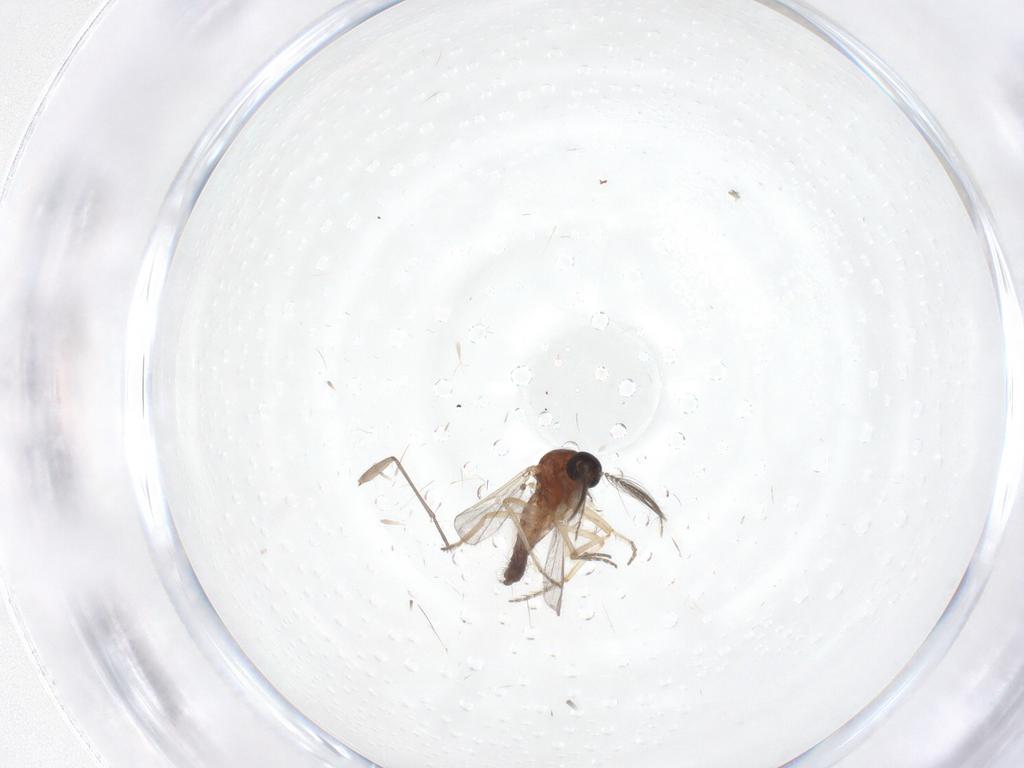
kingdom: Animalia
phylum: Arthropoda
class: Insecta
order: Diptera
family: Ceratopogonidae
